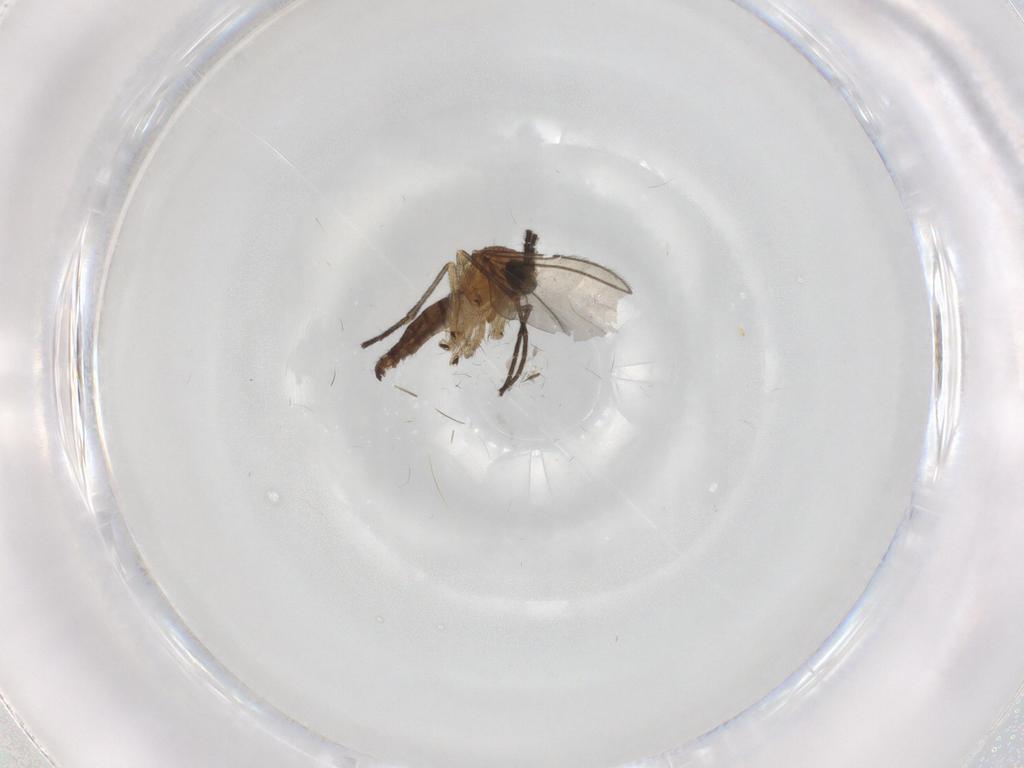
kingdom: Animalia
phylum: Arthropoda
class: Insecta
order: Diptera
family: Sciaridae
